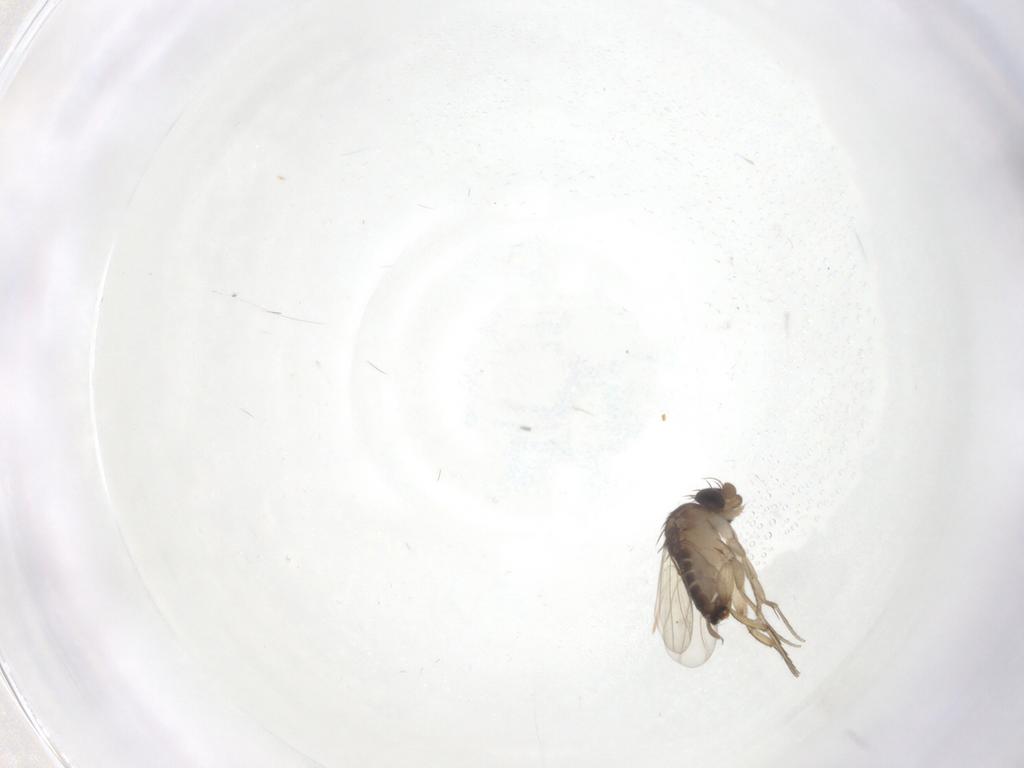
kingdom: Animalia
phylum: Arthropoda
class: Insecta
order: Diptera
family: Phoridae
